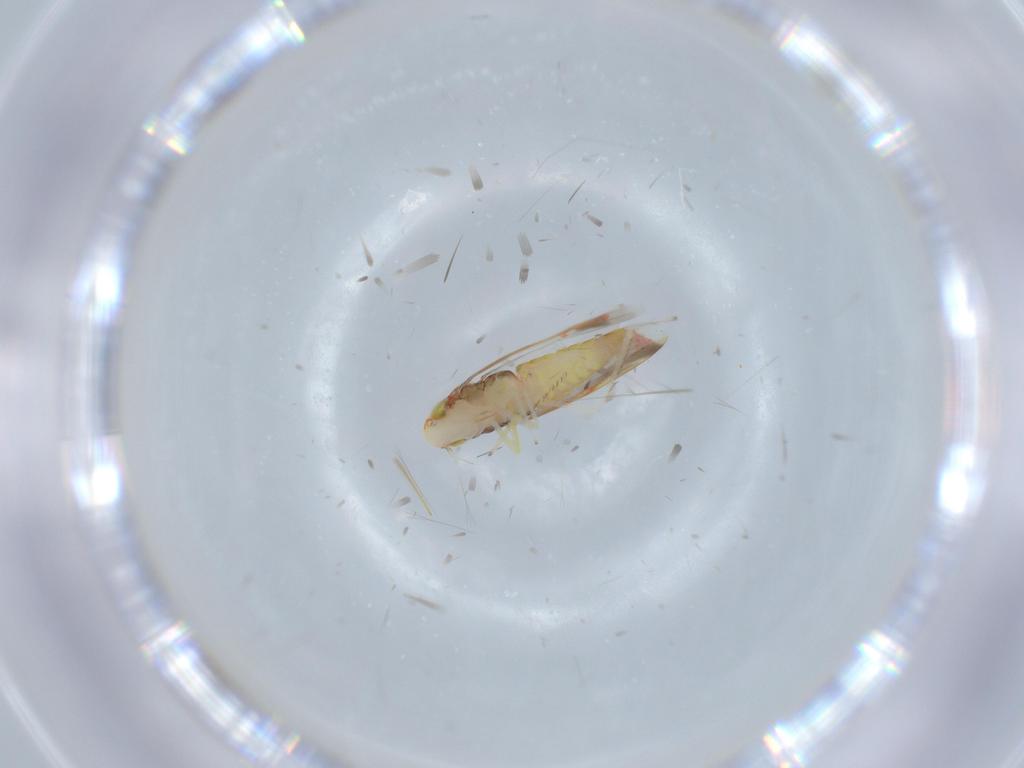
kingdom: Animalia
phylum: Arthropoda
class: Insecta
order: Hemiptera
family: Cicadellidae
